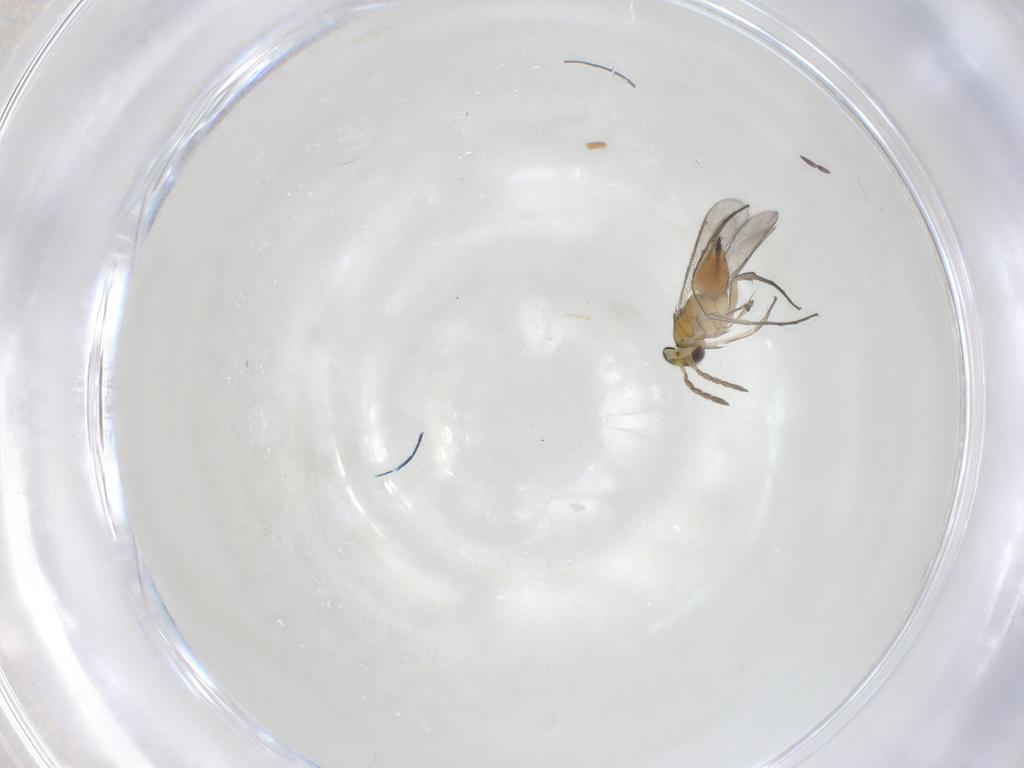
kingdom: Animalia
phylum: Arthropoda
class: Insecta
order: Hymenoptera
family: Eulophidae
